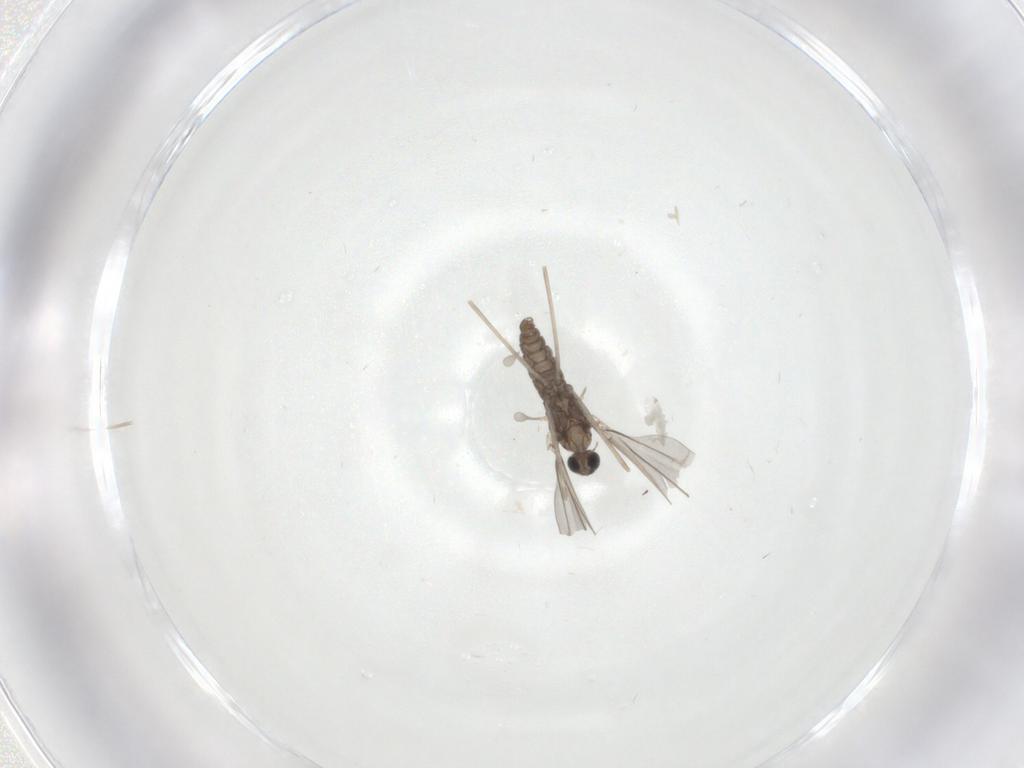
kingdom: Animalia
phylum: Arthropoda
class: Insecta
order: Diptera
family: Cecidomyiidae
